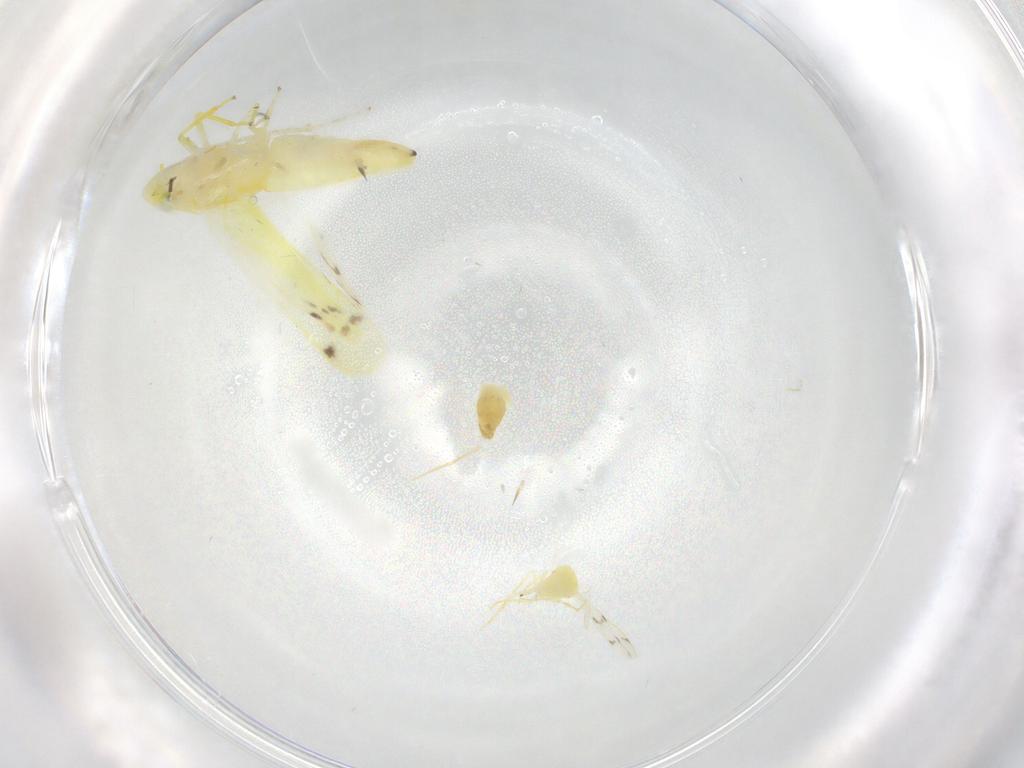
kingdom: Animalia
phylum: Arthropoda
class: Insecta
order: Hemiptera
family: Aleyrodidae
